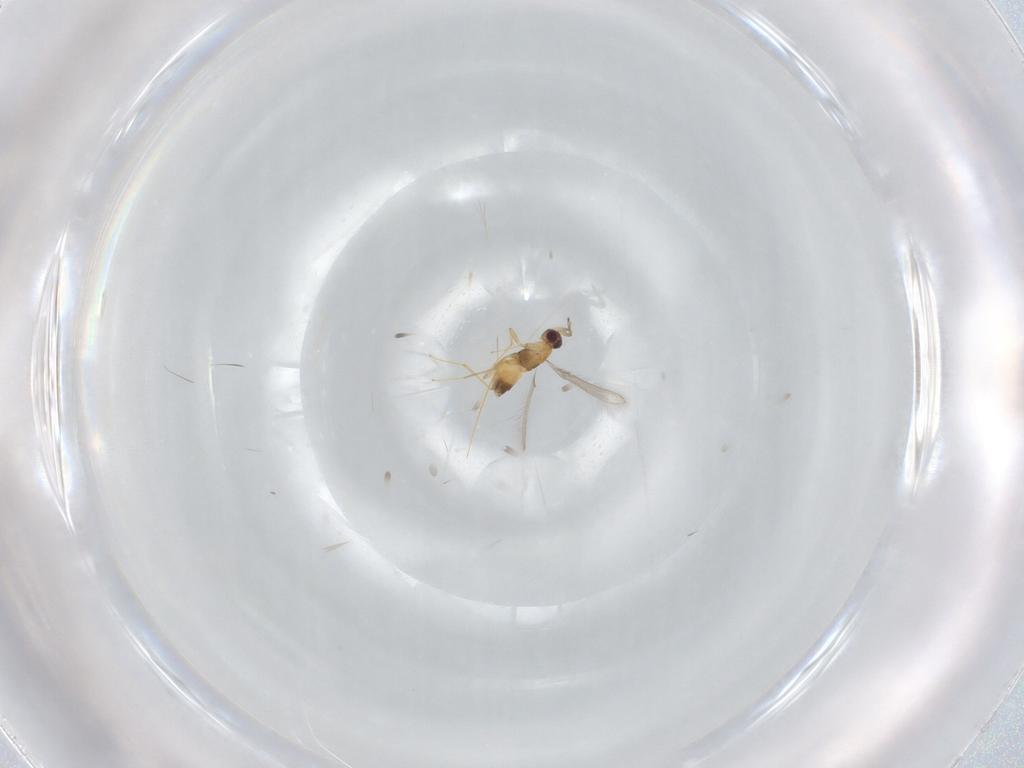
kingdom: Animalia
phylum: Arthropoda
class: Insecta
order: Hymenoptera
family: Mymaridae
